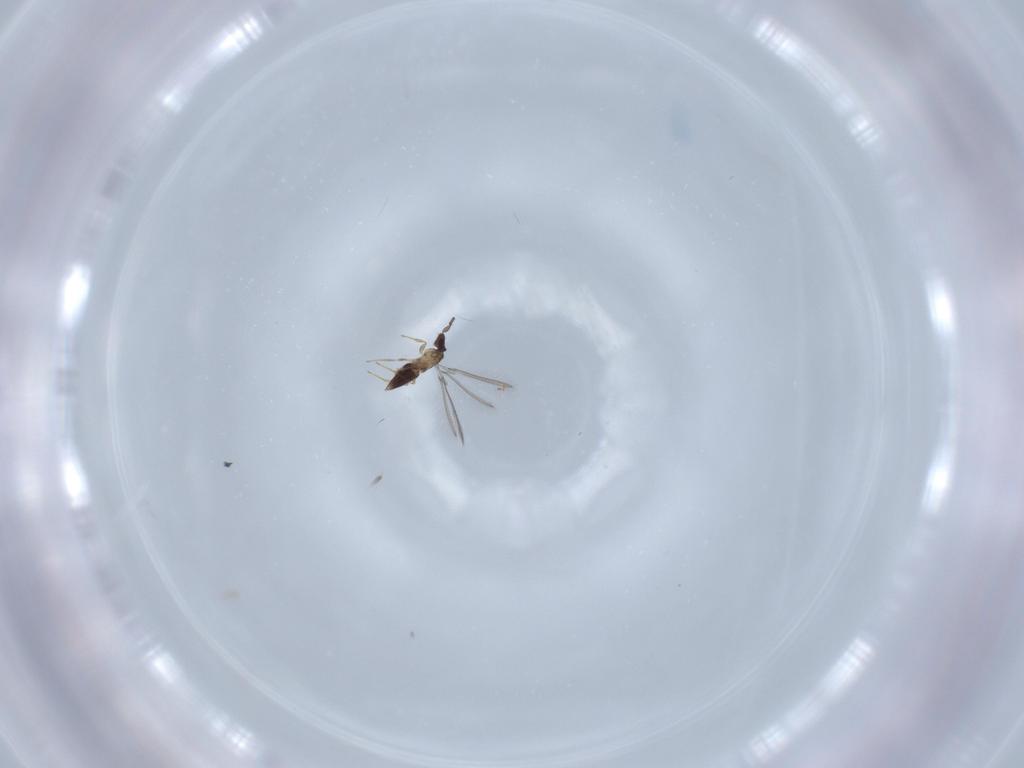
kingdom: Animalia
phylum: Arthropoda
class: Insecta
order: Hymenoptera
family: Mymaridae
